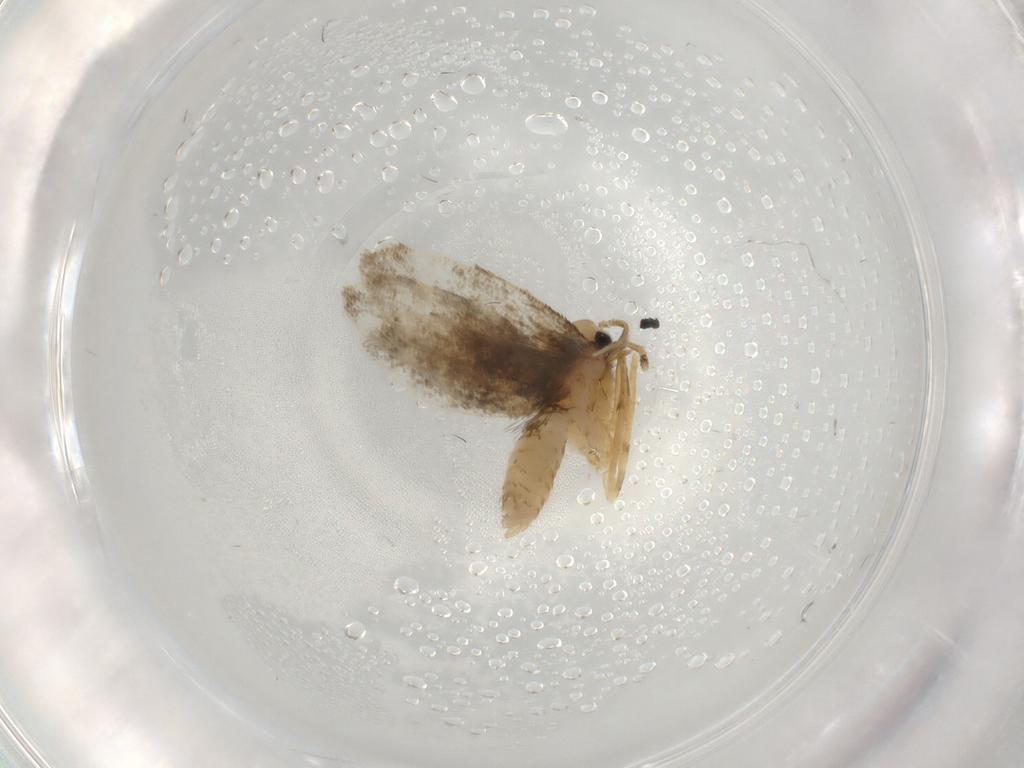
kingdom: Animalia
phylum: Arthropoda
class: Insecta
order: Lepidoptera
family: Psychidae
